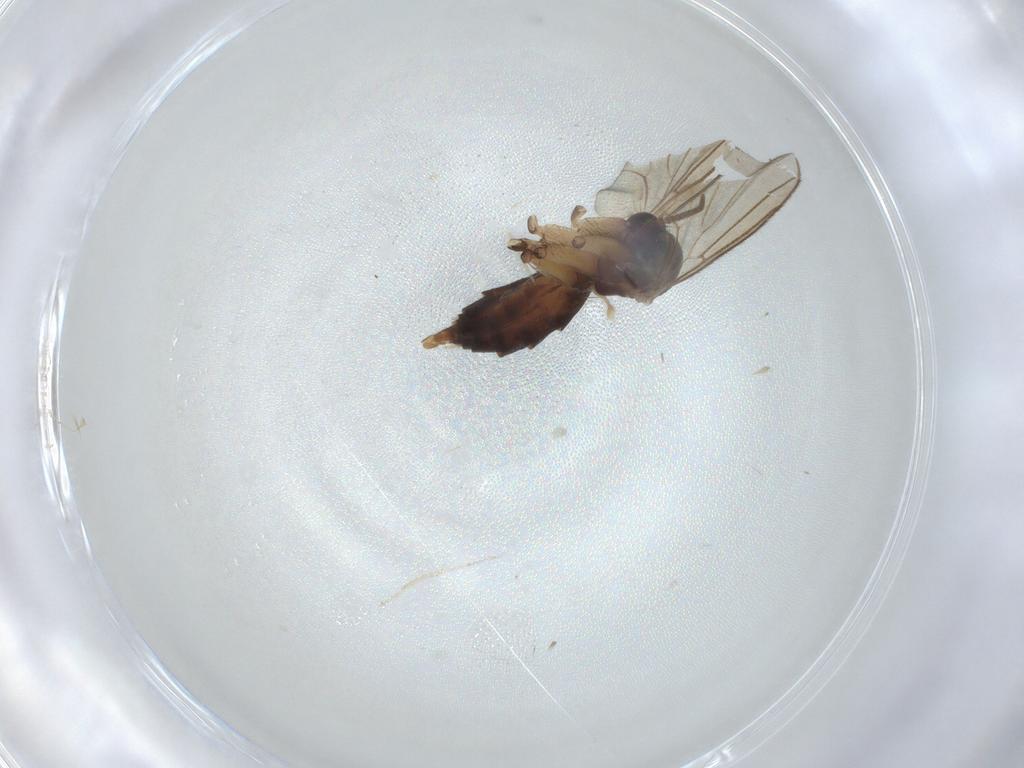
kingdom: Animalia
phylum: Arthropoda
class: Insecta
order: Diptera
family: Mycetophilidae
